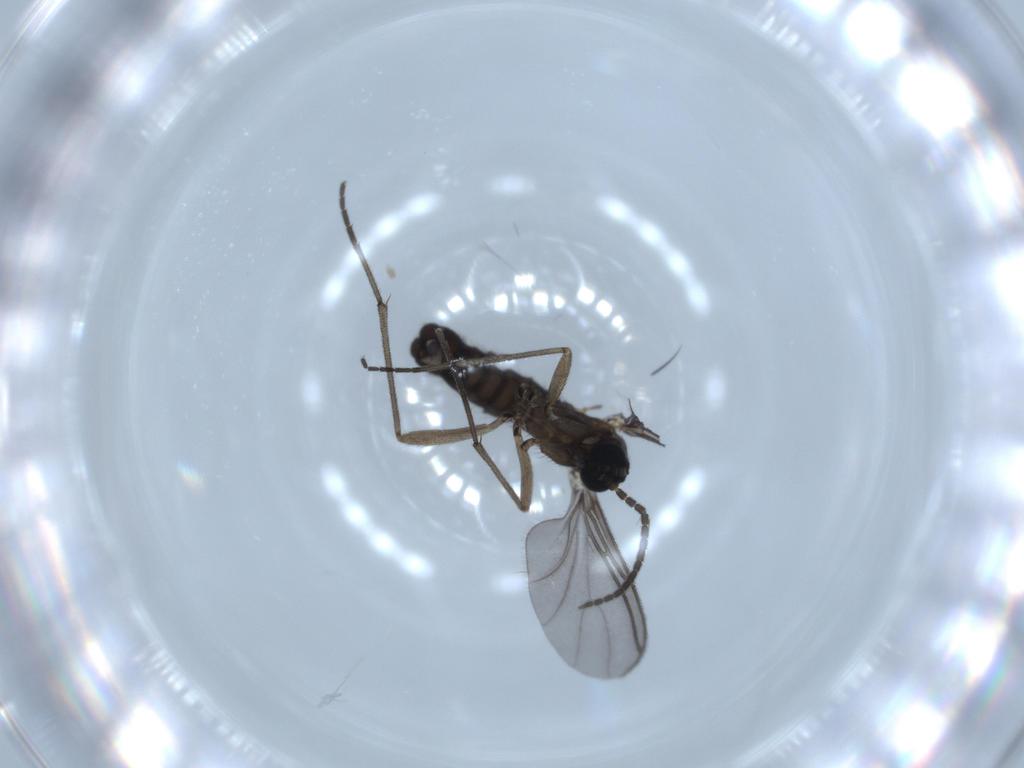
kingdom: Animalia
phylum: Arthropoda
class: Insecta
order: Diptera
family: Sciaridae
